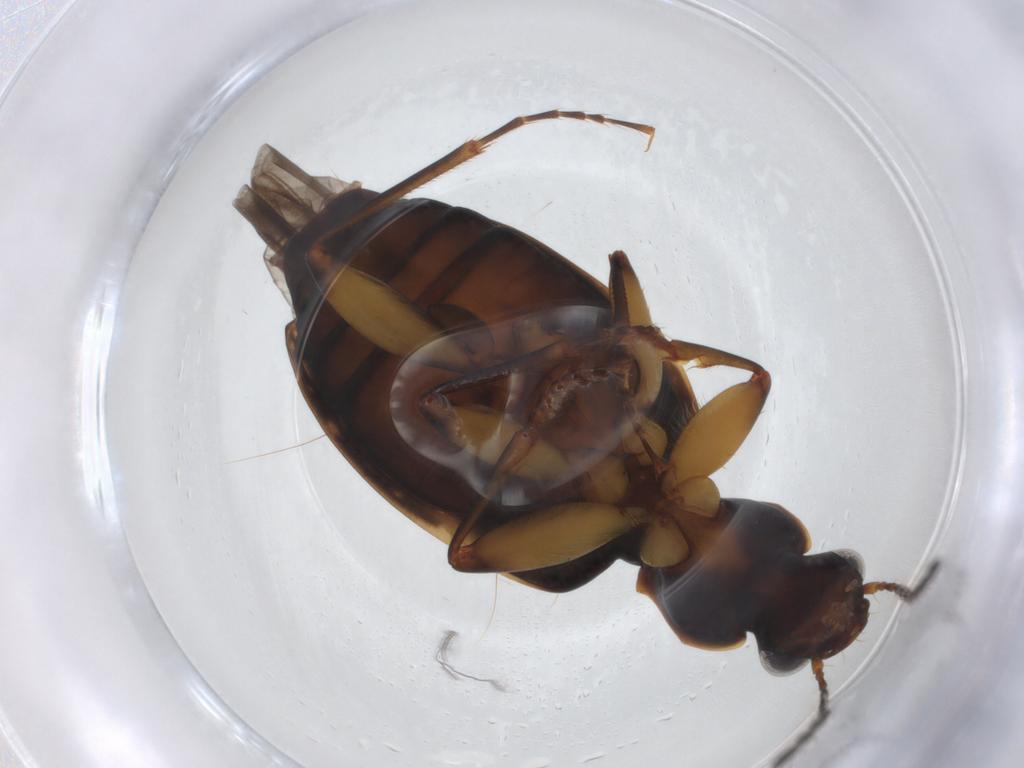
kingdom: Animalia
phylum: Arthropoda
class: Insecta
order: Coleoptera
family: Carabidae
